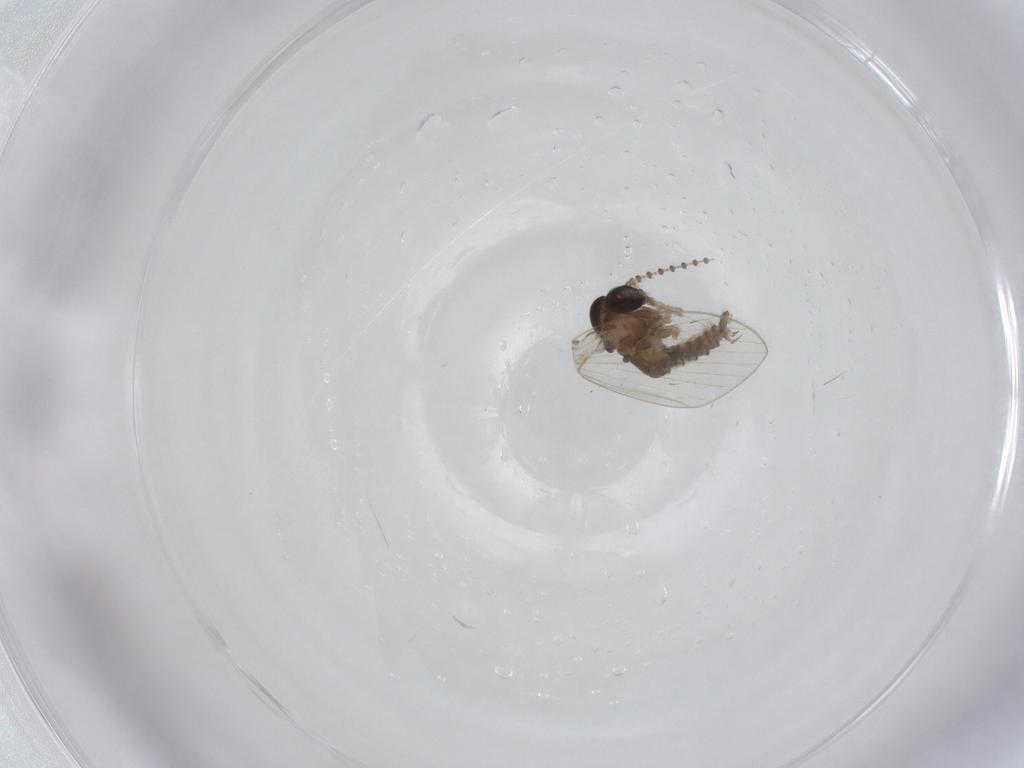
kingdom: Animalia
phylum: Arthropoda
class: Insecta
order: Diptera
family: Psychodidae
